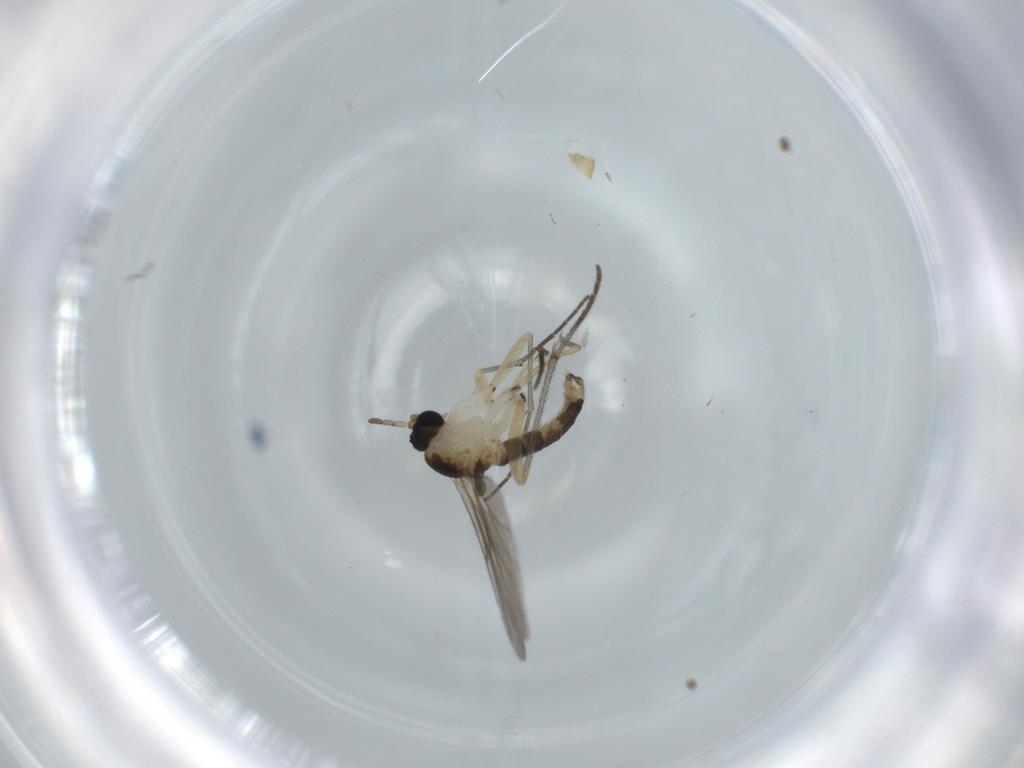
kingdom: Animalia
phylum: Arthropoda
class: Insecta
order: Diptera
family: Sciaridae
